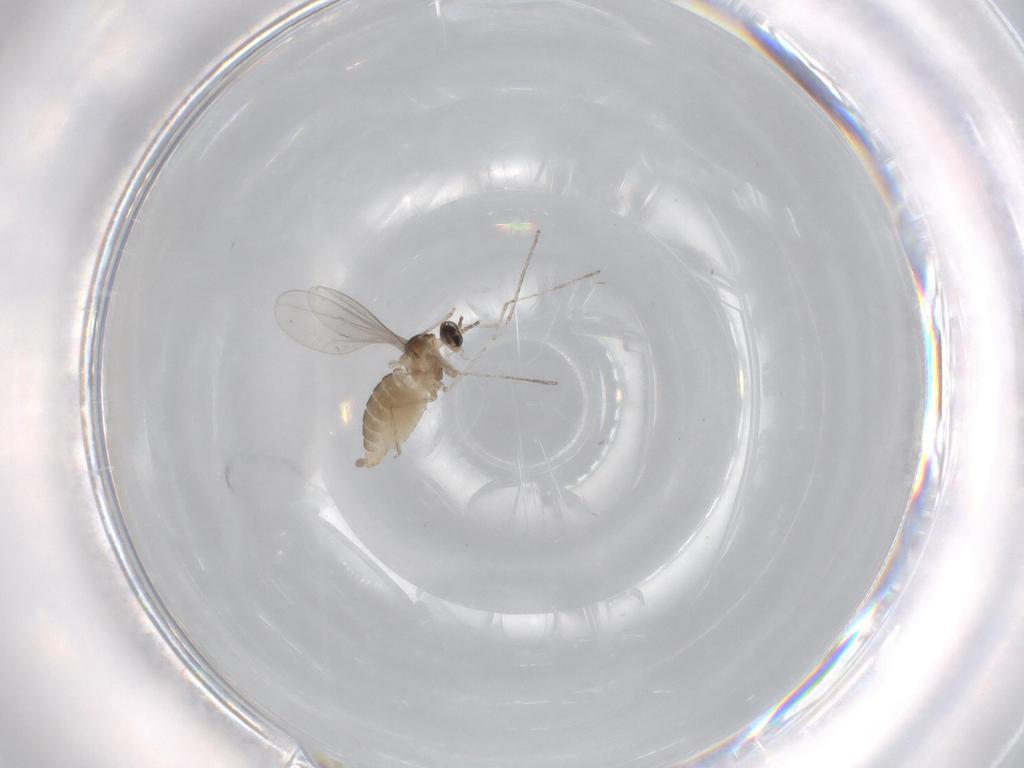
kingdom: Animalia
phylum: Arthropoda
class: Insecta
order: Diptera
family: Cecidomyiidae
